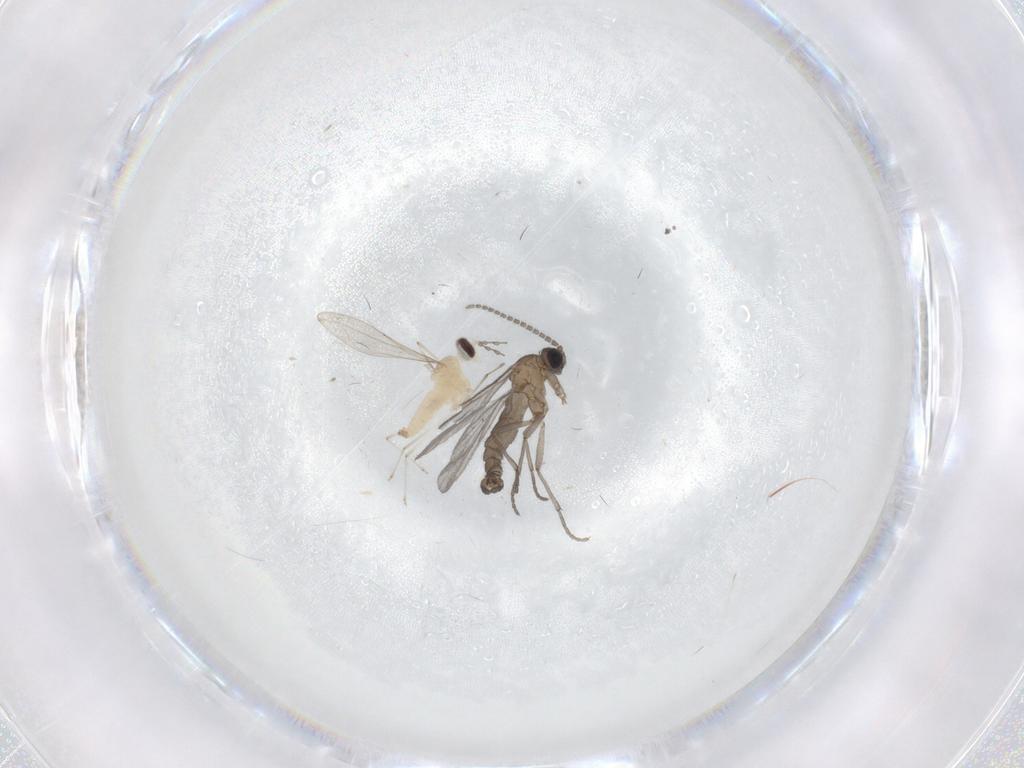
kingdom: Animalia
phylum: Arthropoda
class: Insecta
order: Diptera
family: Sciaridae
